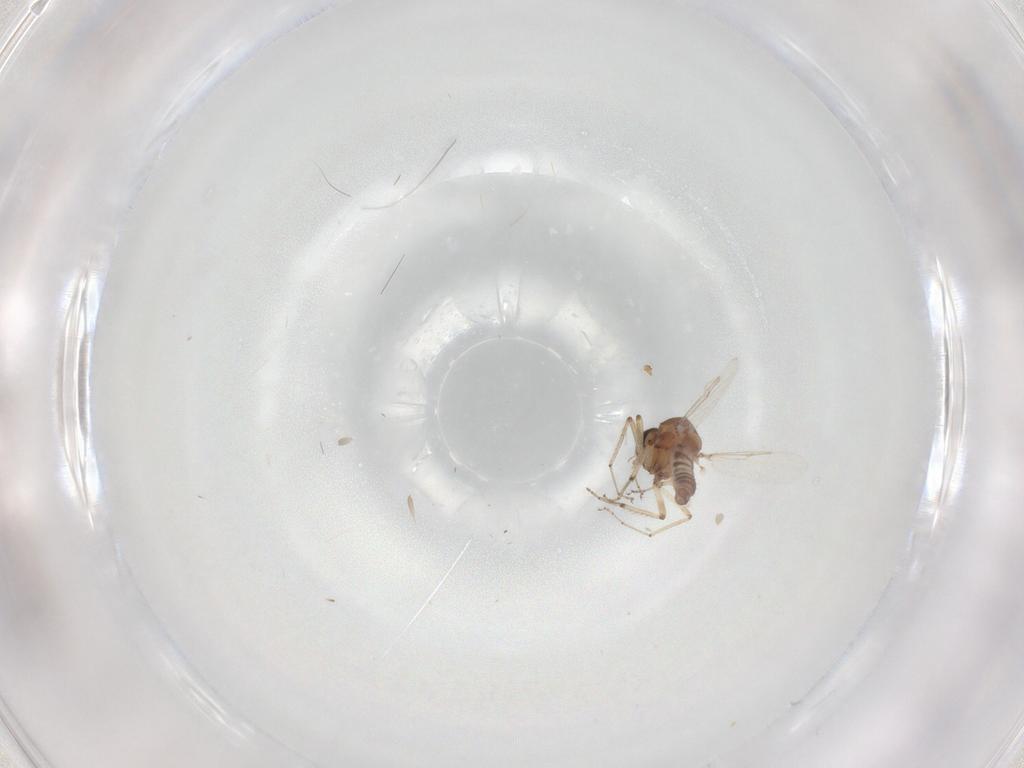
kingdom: Animalia
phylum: Arthropoda
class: Insecta
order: Diptera
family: Ceratopogonidae
